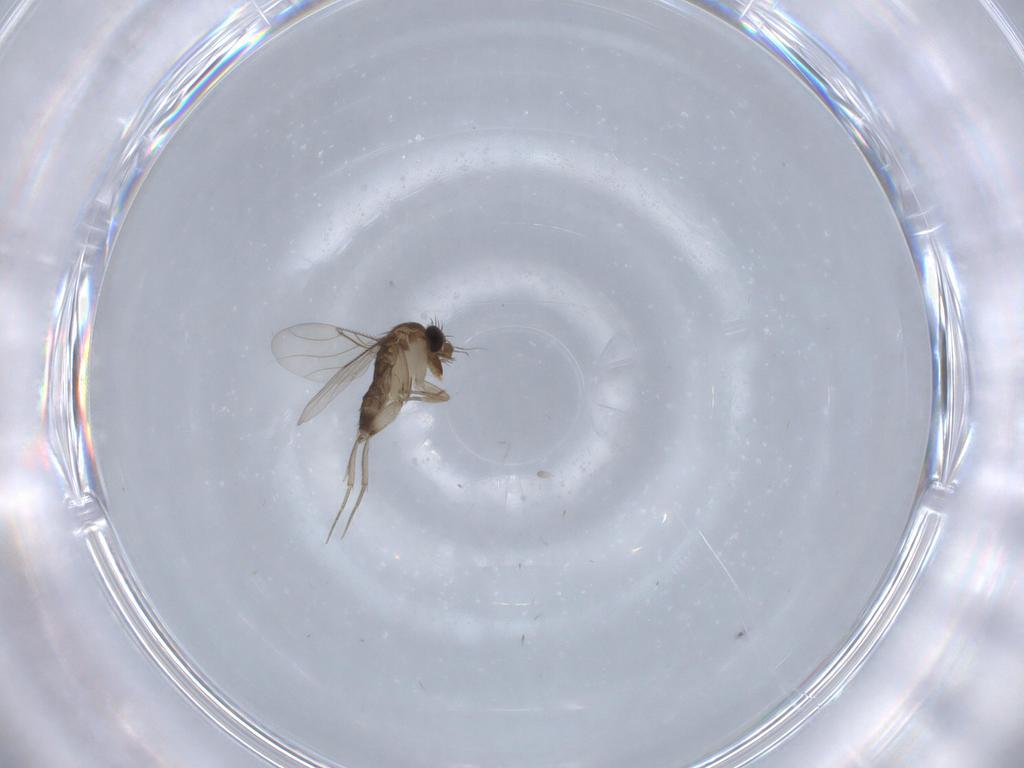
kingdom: Animalia
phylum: Arthropoda
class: Insecta
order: Diptera
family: Phoridae
